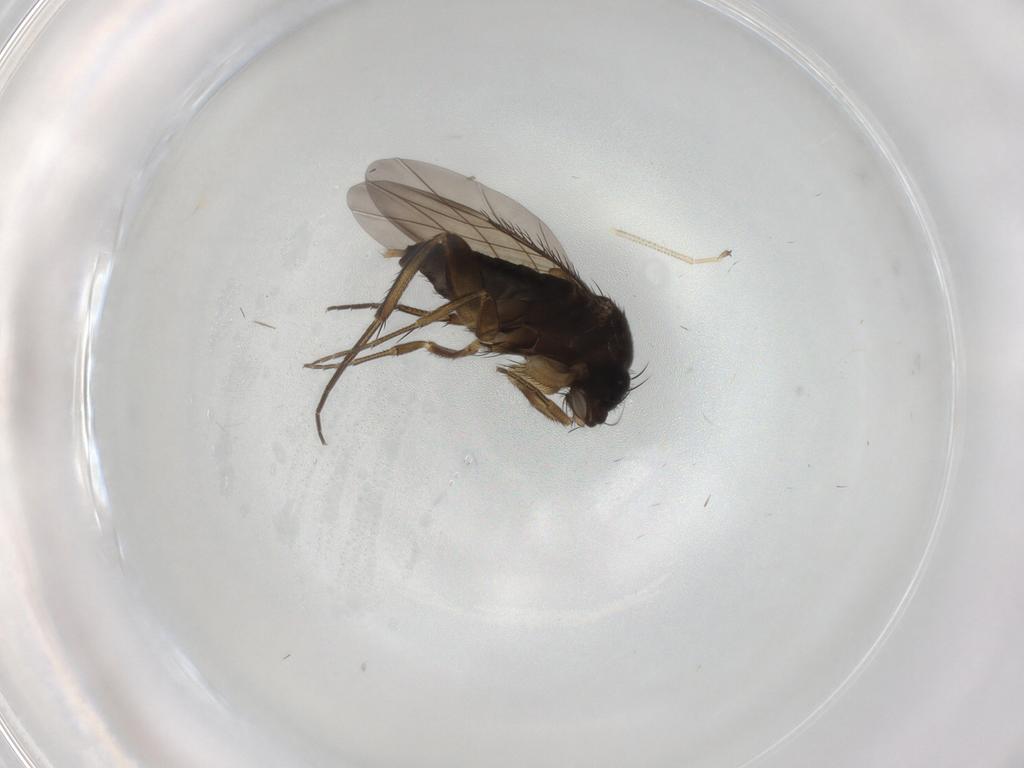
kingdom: Animalia
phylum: Arthropoda
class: Insecta
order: Diptera
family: Phoridae
